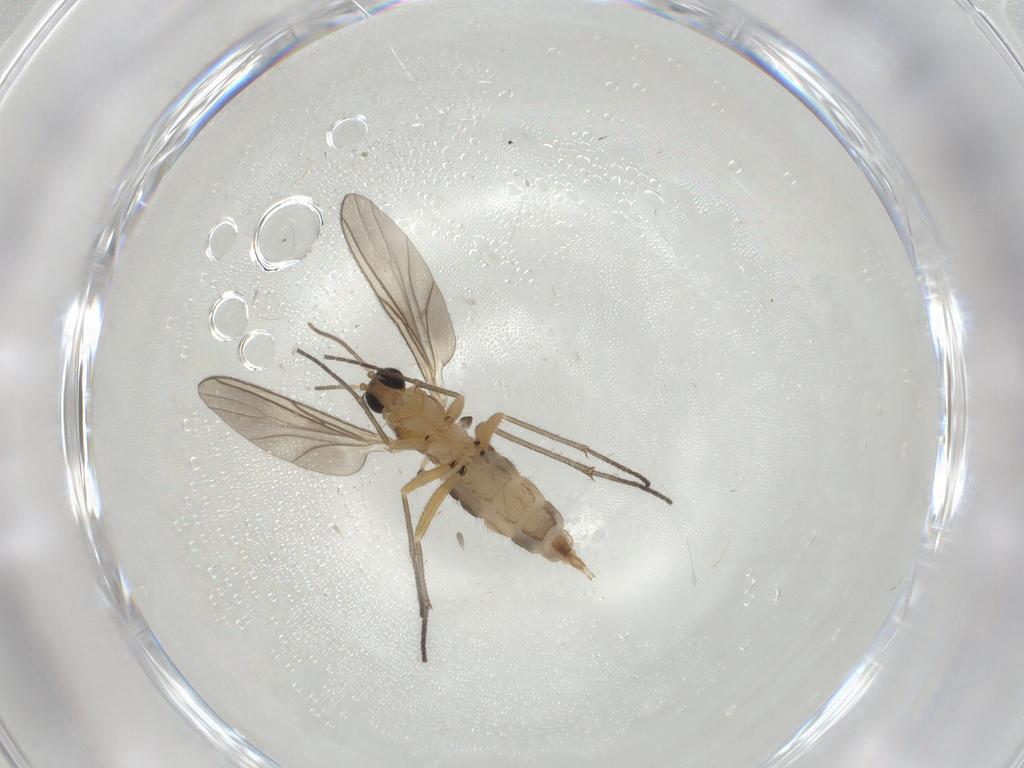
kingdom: Animalia
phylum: Arthropoda
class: Insecta
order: Diptera
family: Sciaridae
